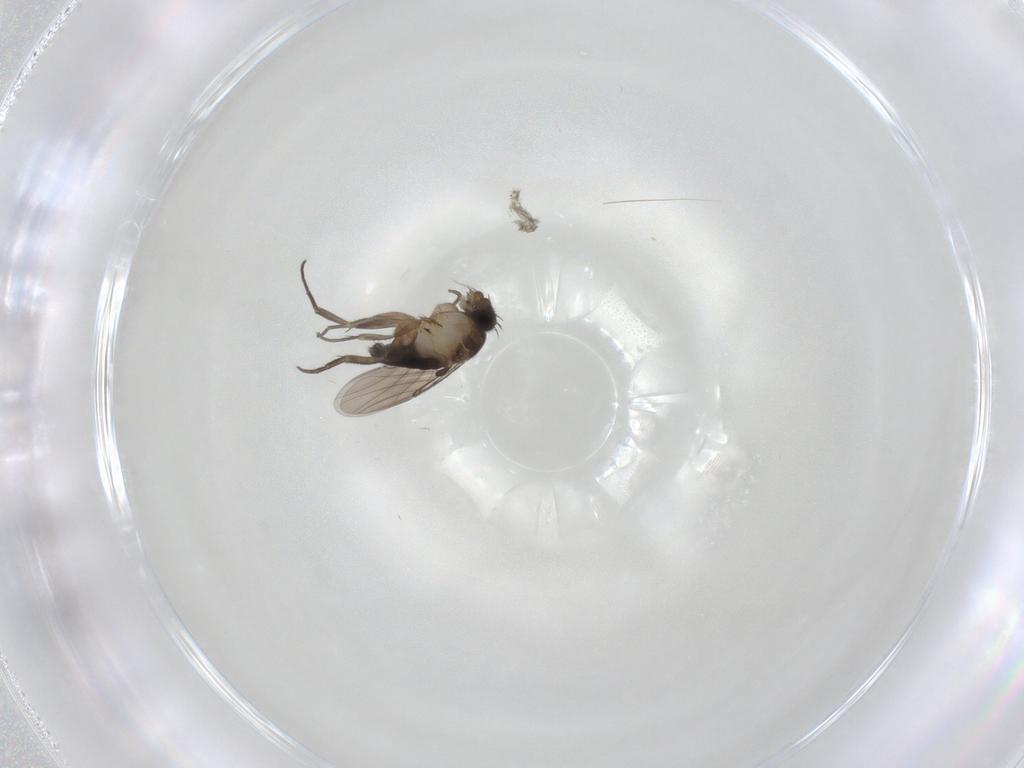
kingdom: Animalia
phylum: Arthropoda
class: Insecta
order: Diptera
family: Phoridae
